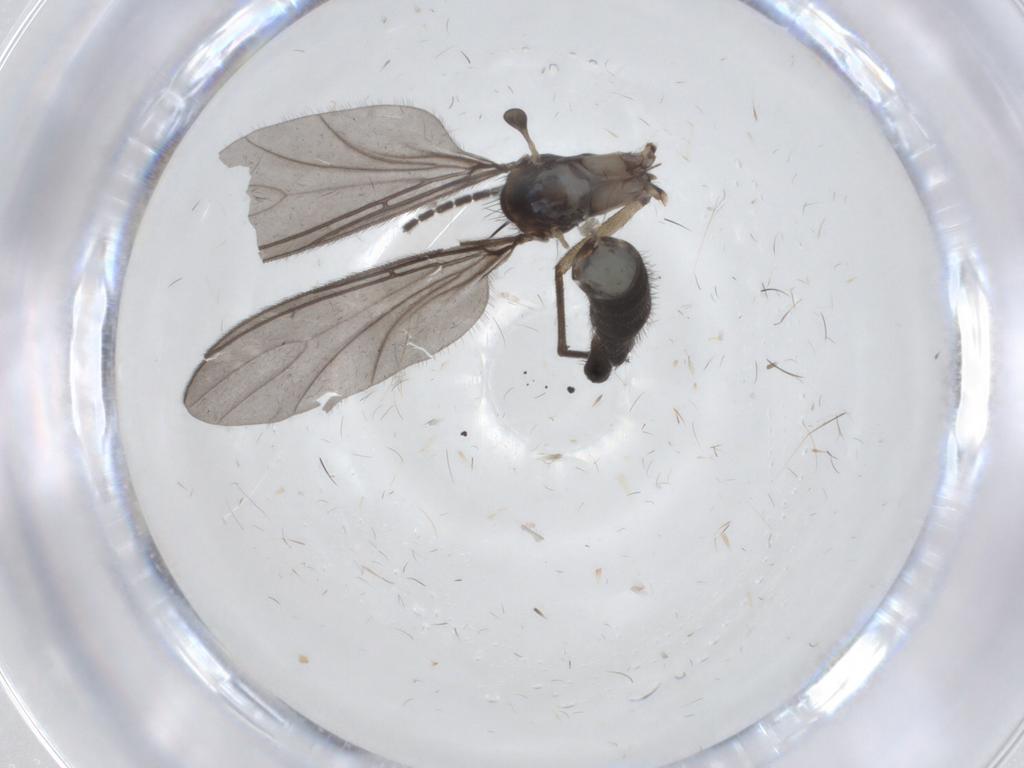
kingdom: Animalia
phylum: Arthropoda
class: Insecta
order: Diptera
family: Sciaridae
